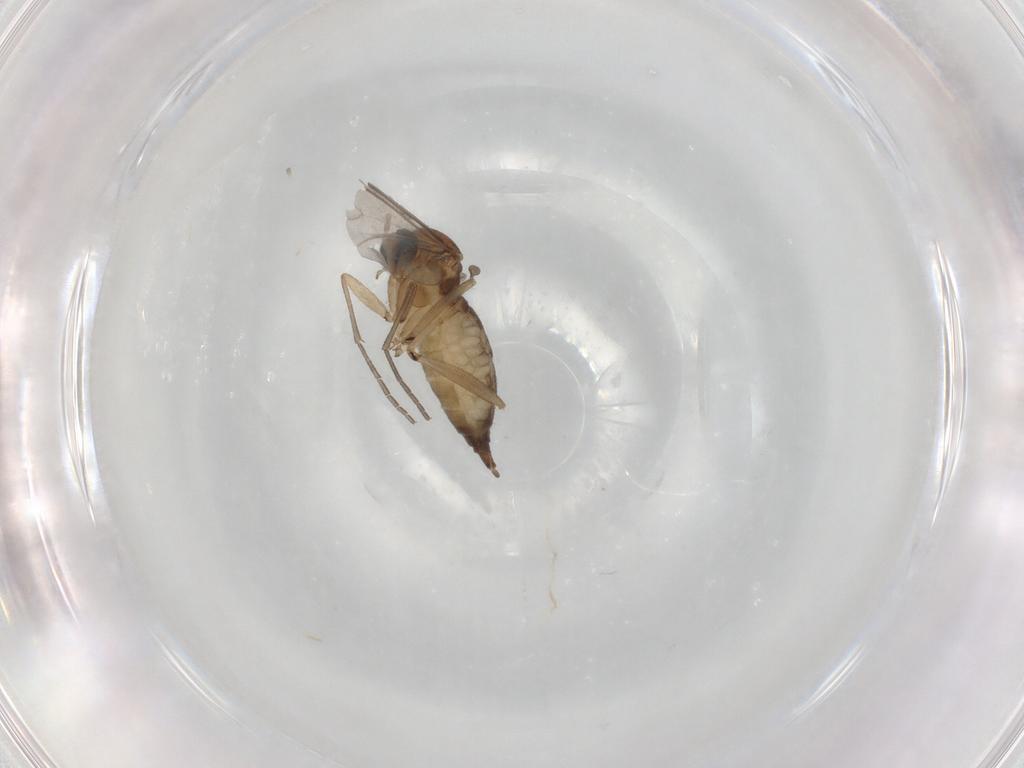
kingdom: Animalia
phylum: Arthropoda
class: Insecta
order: Diptera
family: Sciaridae
